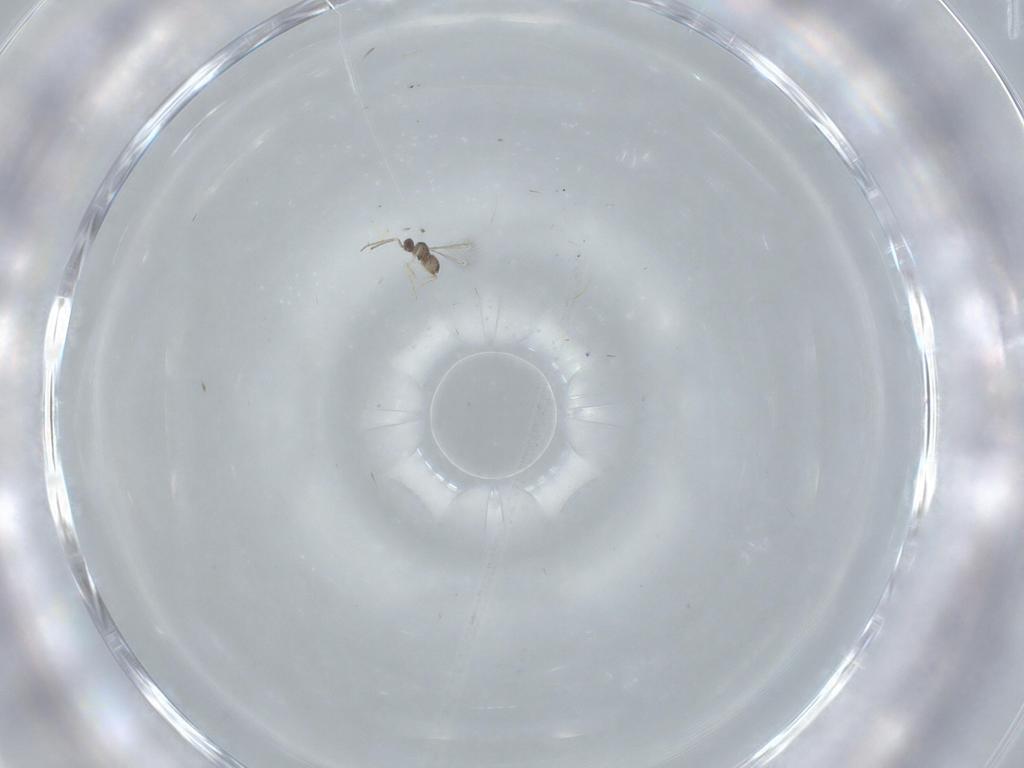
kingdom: Animalia
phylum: Arthropoda
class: Insecta
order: Hymenoptera
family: Trichogrammatidae
